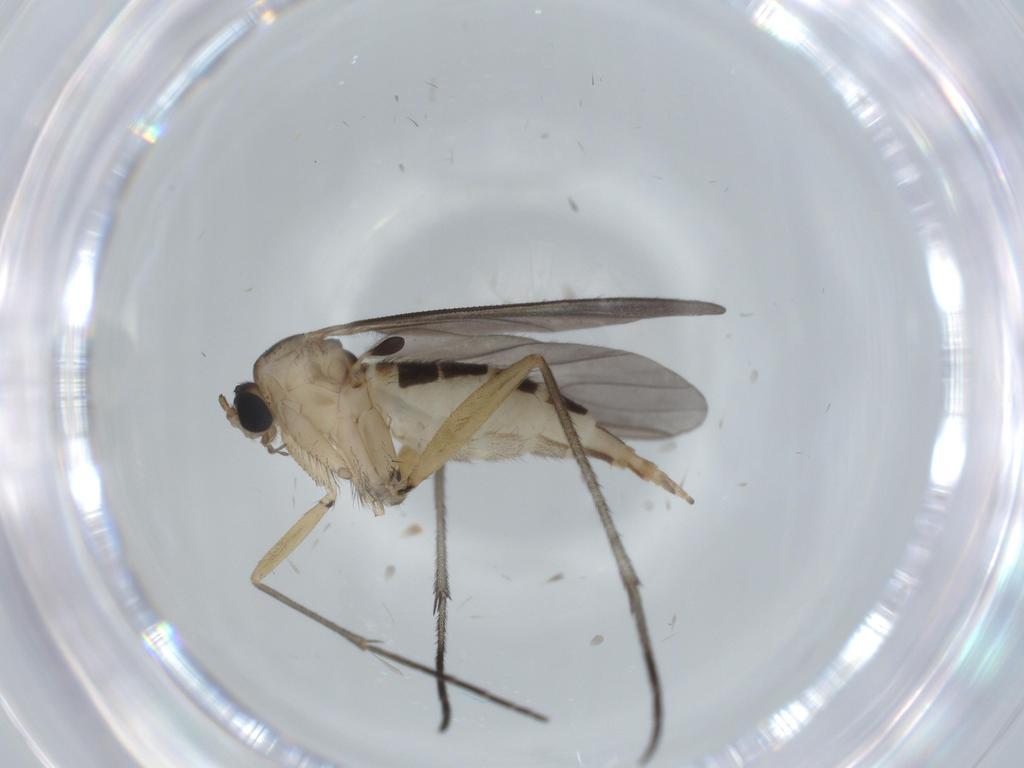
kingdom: Animalia
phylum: Arthropoda
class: Insecta
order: Diptera
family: Sciaridae
